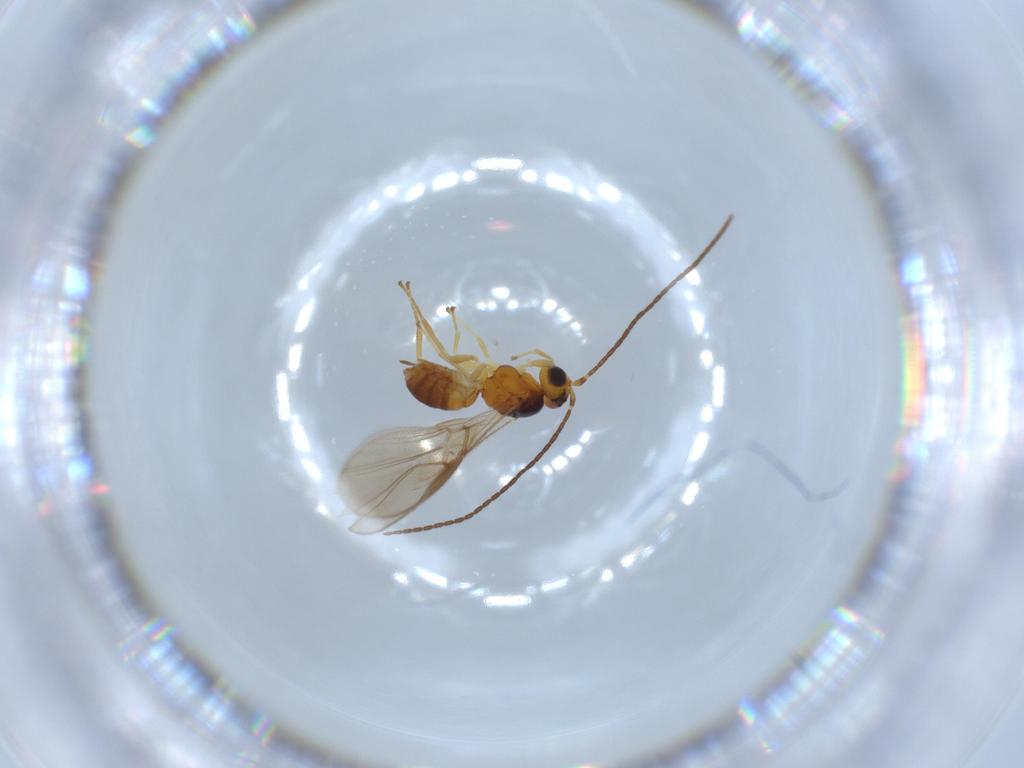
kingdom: Animalia
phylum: Arthropoda
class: Insecta
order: Hymenoptera
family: Braconidae
